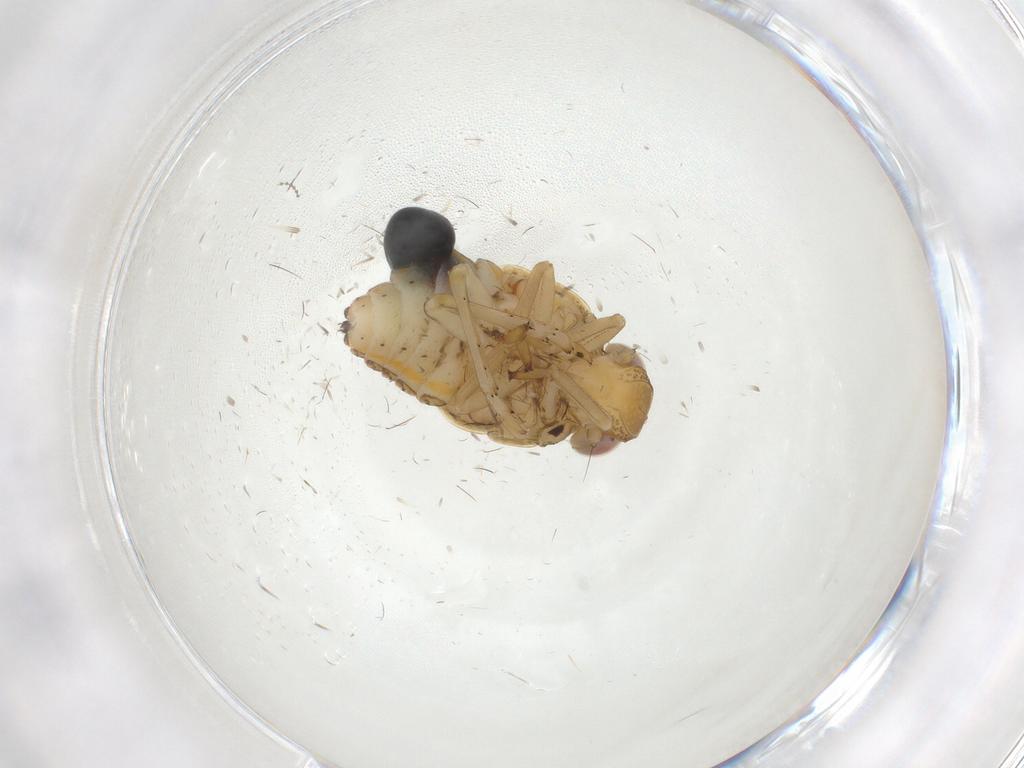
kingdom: Animalia
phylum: Arthropoda
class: Insecta
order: Hemiptera
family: Issidae
